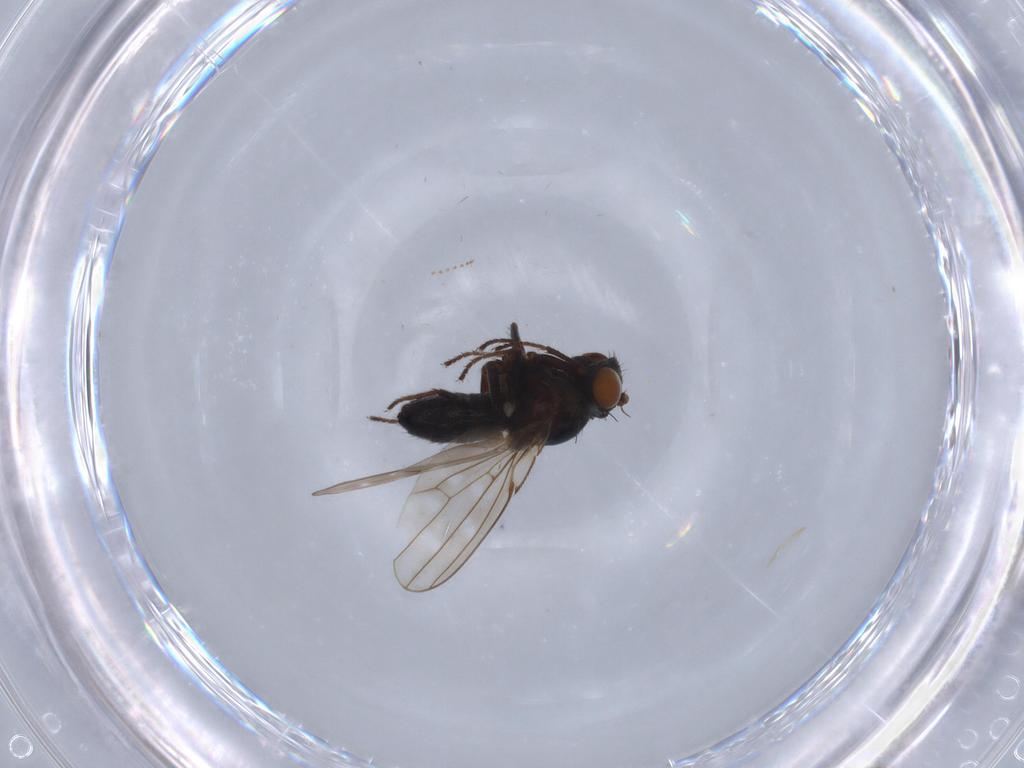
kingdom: Animalia
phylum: Arthropoda
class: Insecta
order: Diptera
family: Ephydridae
